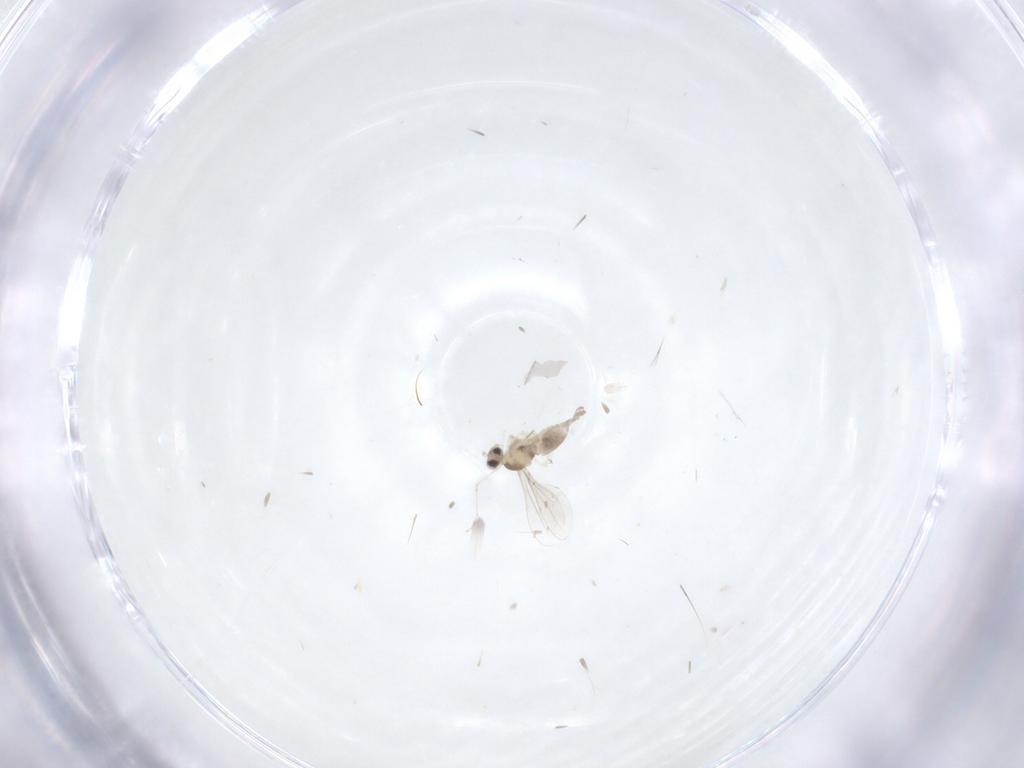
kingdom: Animalia
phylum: Arthropoda
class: Insecta
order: Diptera
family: Cecidomyiidae
